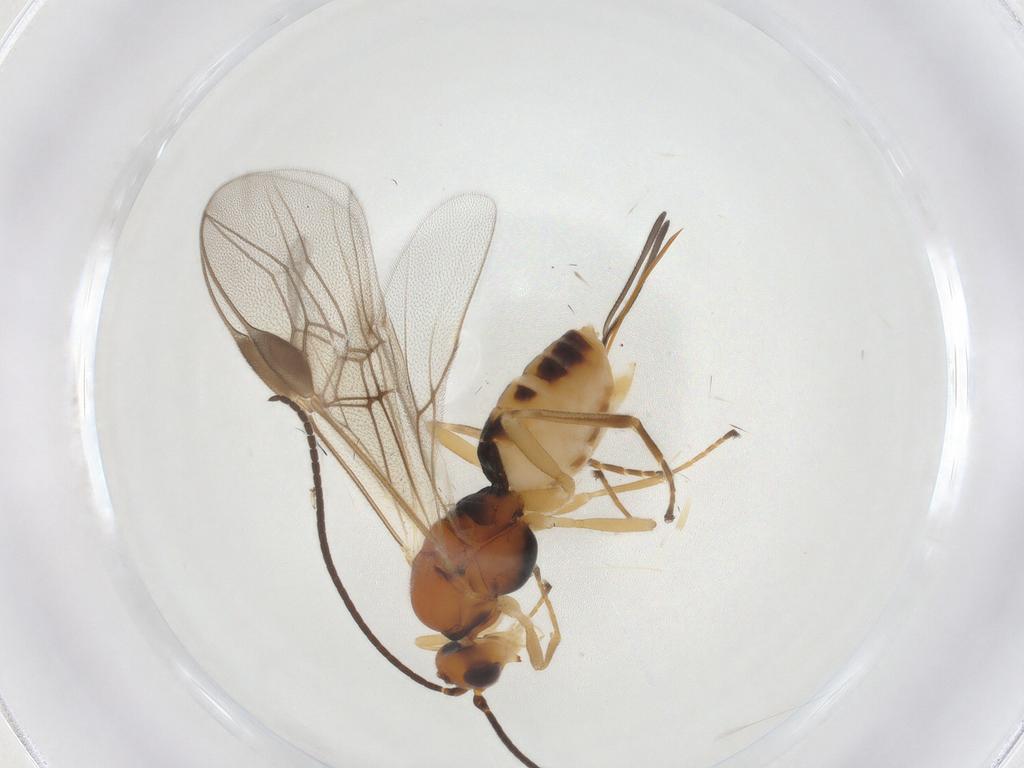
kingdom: Animalia
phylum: Arthropoda
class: Insecta
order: Hymenoptera
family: Braconidae
